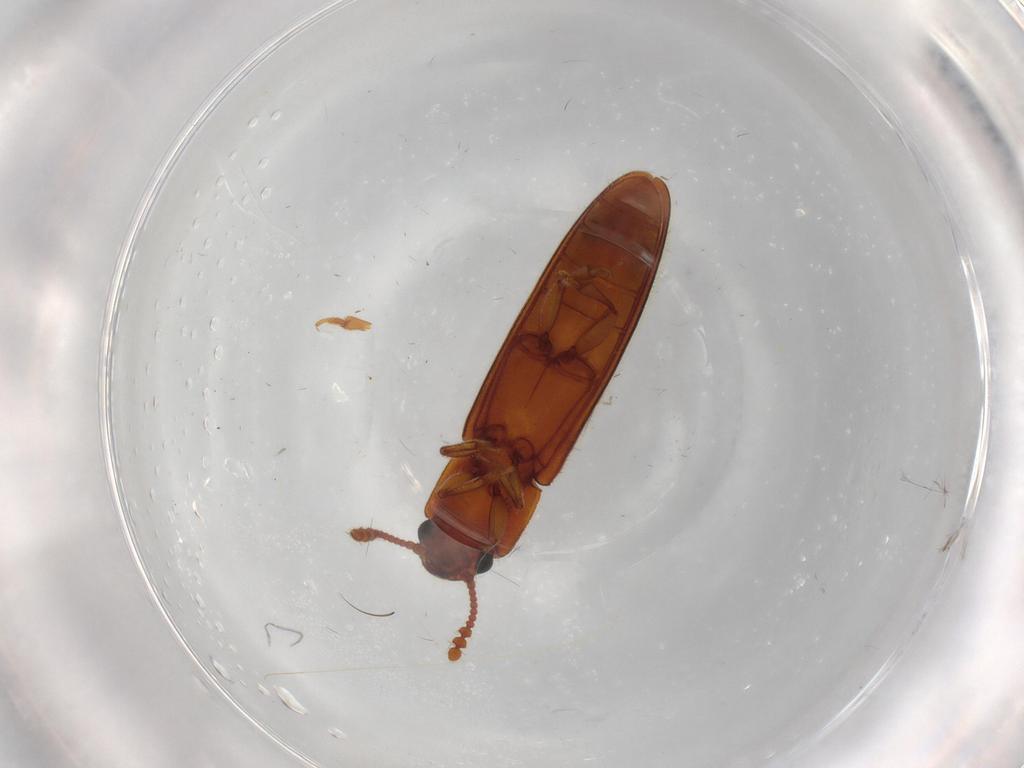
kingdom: Animalia
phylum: Arthropoda
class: Insecta
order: Coleoptera
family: Erotylidae
